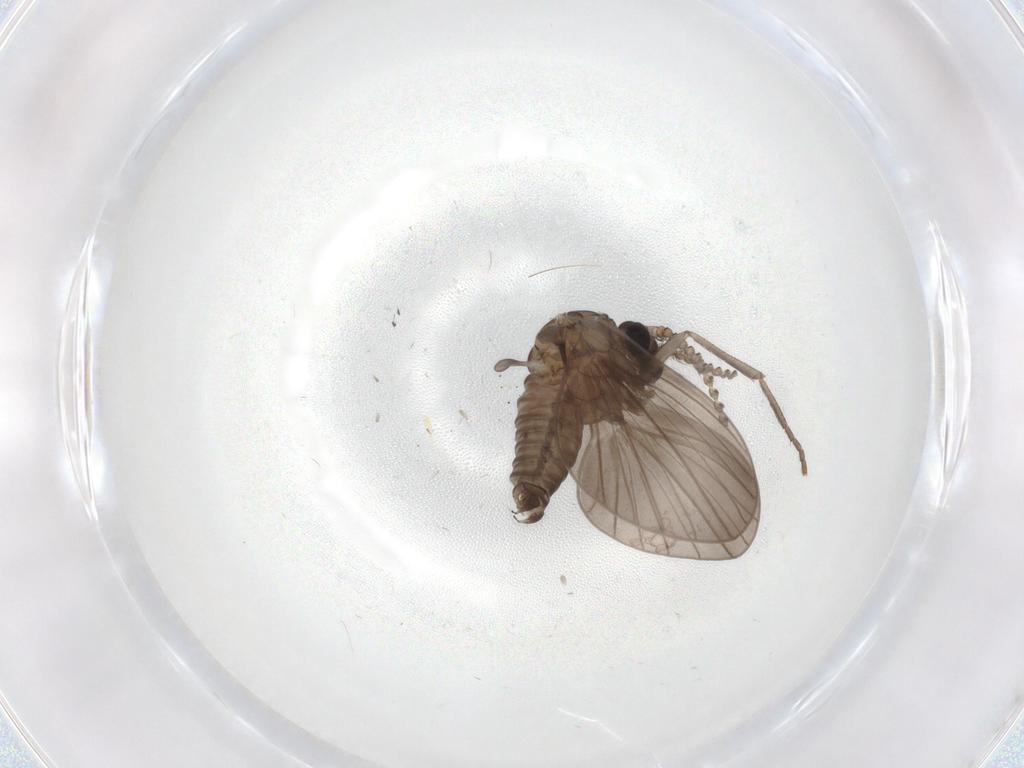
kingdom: Animalia
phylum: Arthropoda
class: Insecta
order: Diptera
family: Psychodidae
